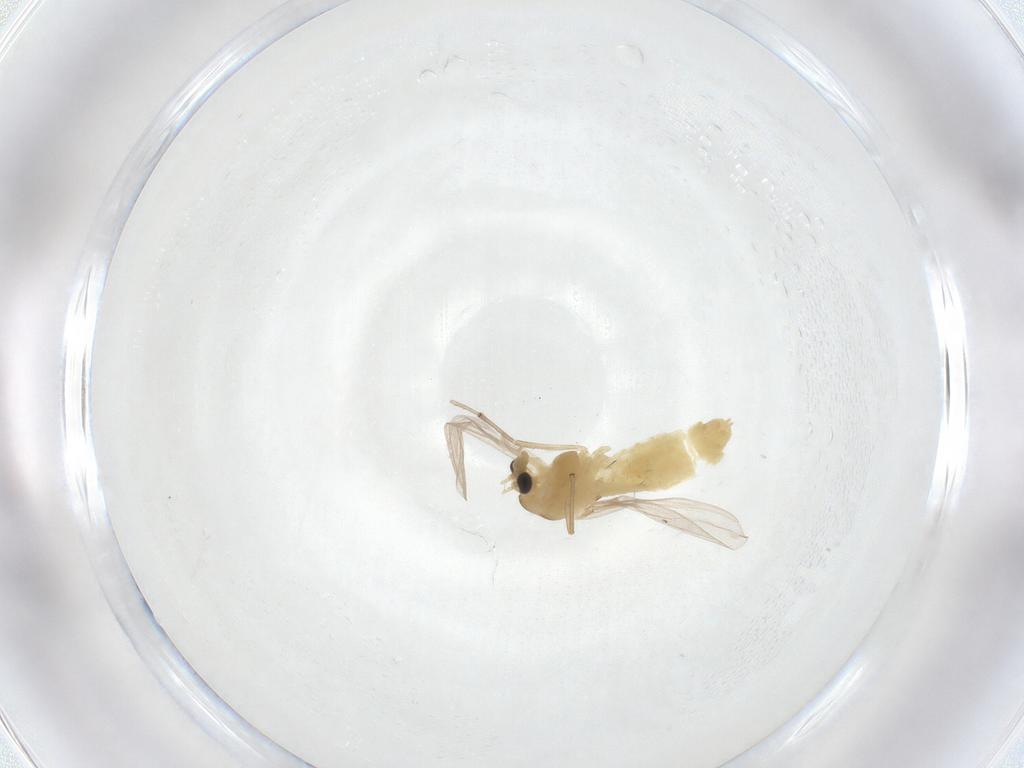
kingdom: Animalia
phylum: Arthropoda
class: Insecta
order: Diptera
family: Chironomidae
